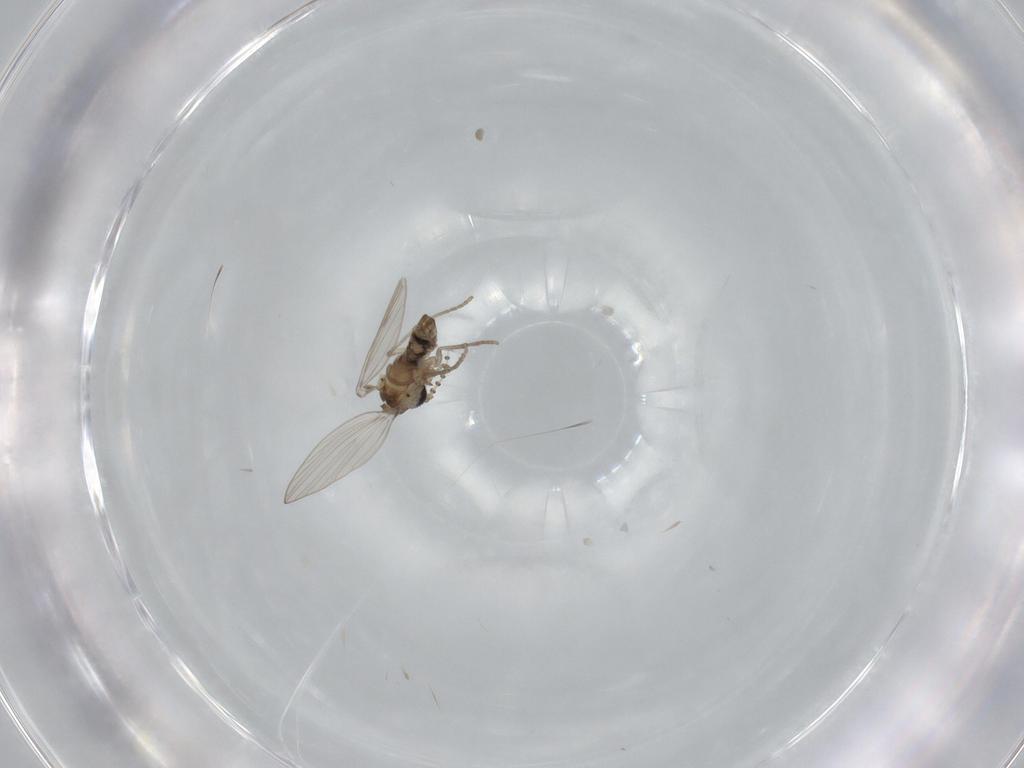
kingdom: Animalia
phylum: Arthropoda
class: Insecta
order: Diptera
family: Psychodidae
